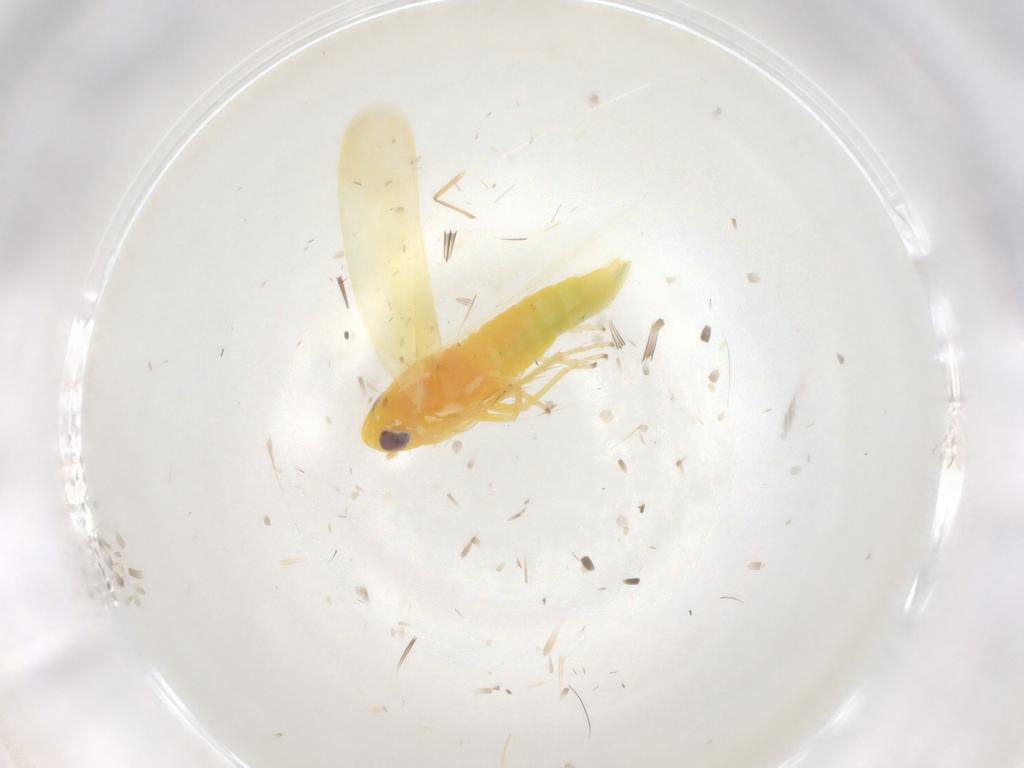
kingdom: Animalia
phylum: Arthropoda
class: Insecta
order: Hemiptera
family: Cicadellidae
